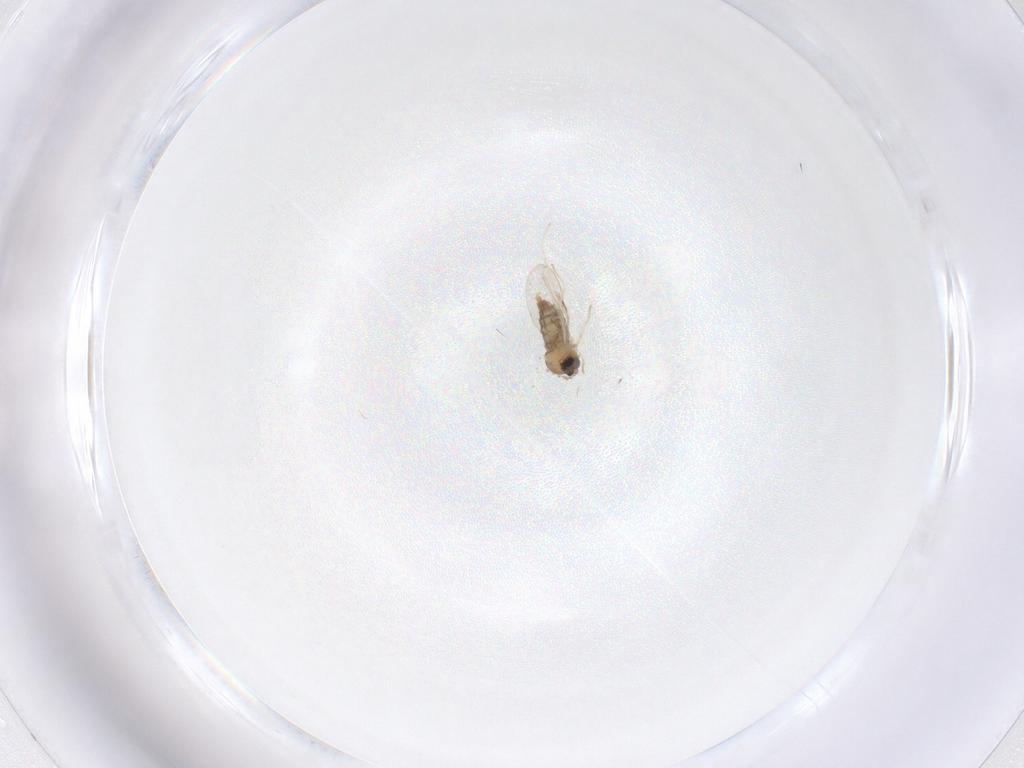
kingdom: Animalia
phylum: Arthropoda
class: Insecta
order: Diptera
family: Cecidomyiidae
